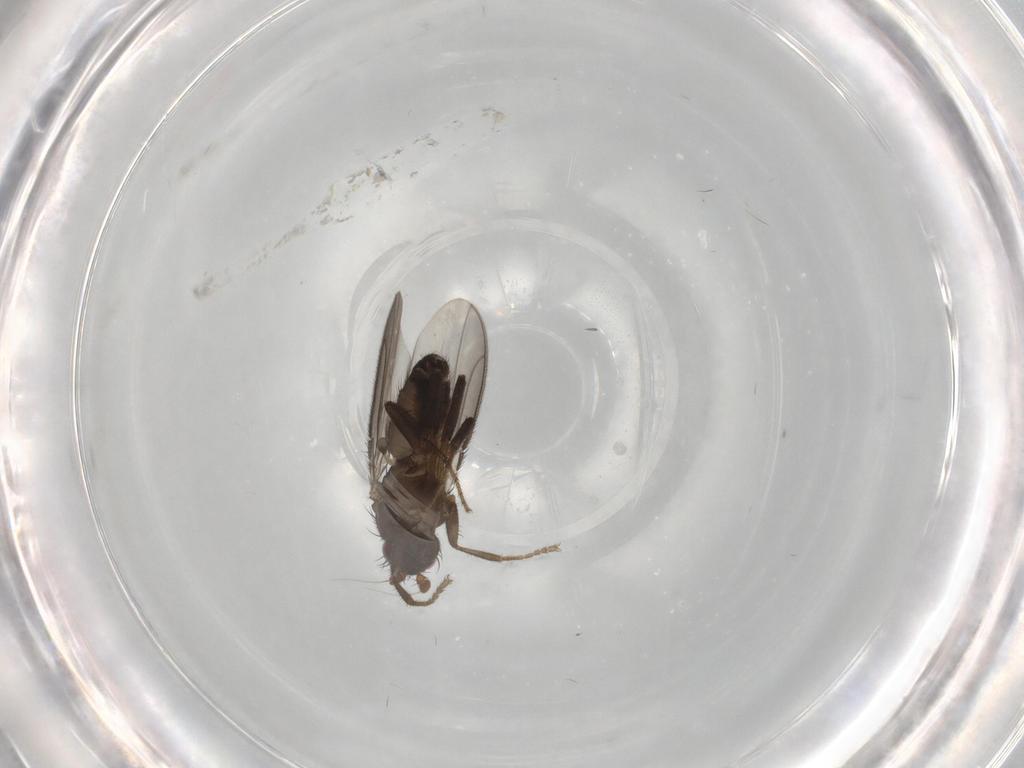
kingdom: Animalia
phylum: Arthropoda
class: Insecta
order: Diptera
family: Sphaeroceridae
